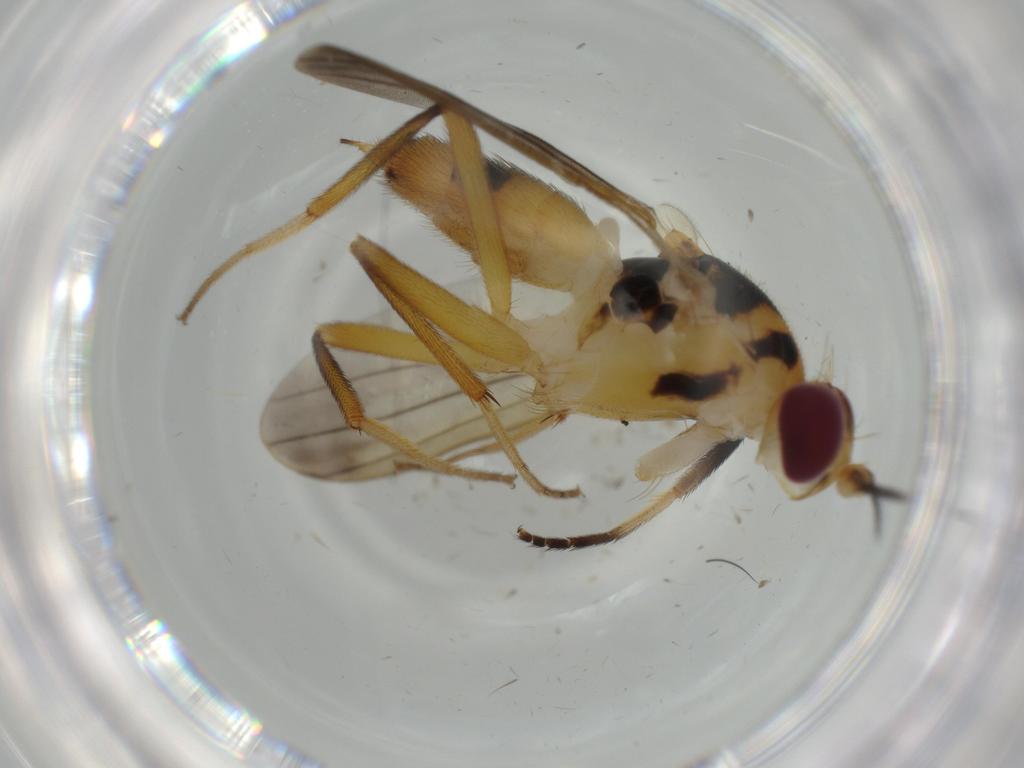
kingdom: Animalia
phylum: Arthropoda
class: Insecta
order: Diptera
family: Clusiidae
